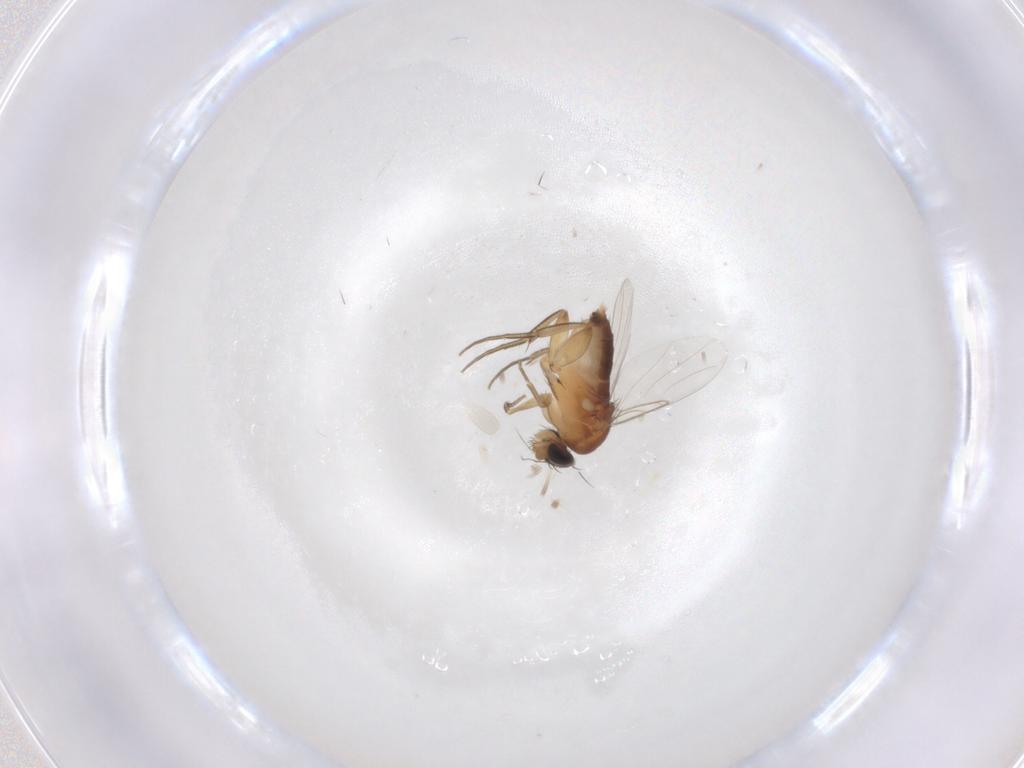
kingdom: Animalia
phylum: Arthropoda
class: Insecta
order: Diptera
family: Phoridae
